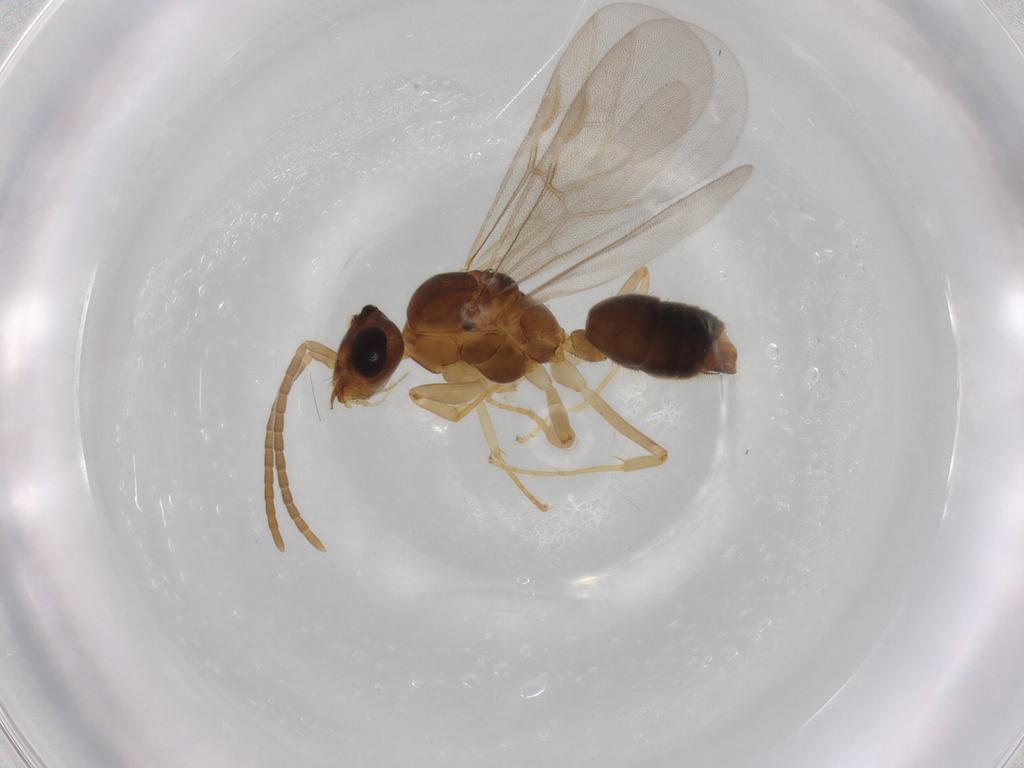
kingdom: Animalia
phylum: Arthropoda
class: Insecta
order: Hymenoptera
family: Formicidae
